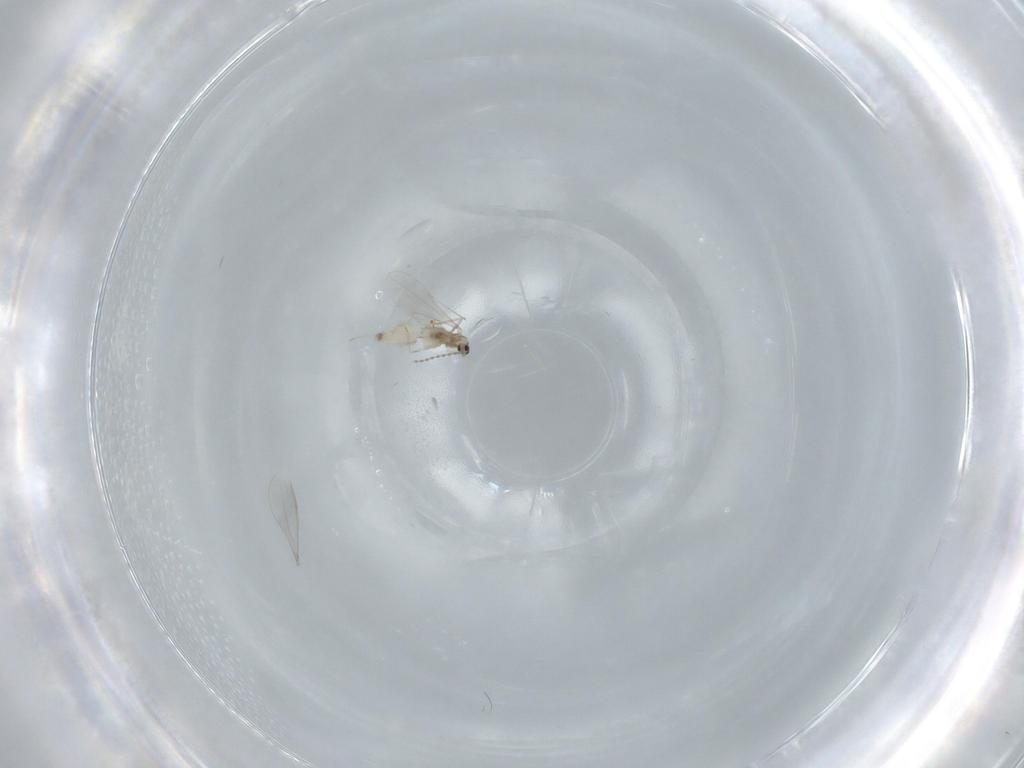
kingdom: Animalia
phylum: Arthropoda
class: Insecta
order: Diptera
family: Cecidomyiidae
